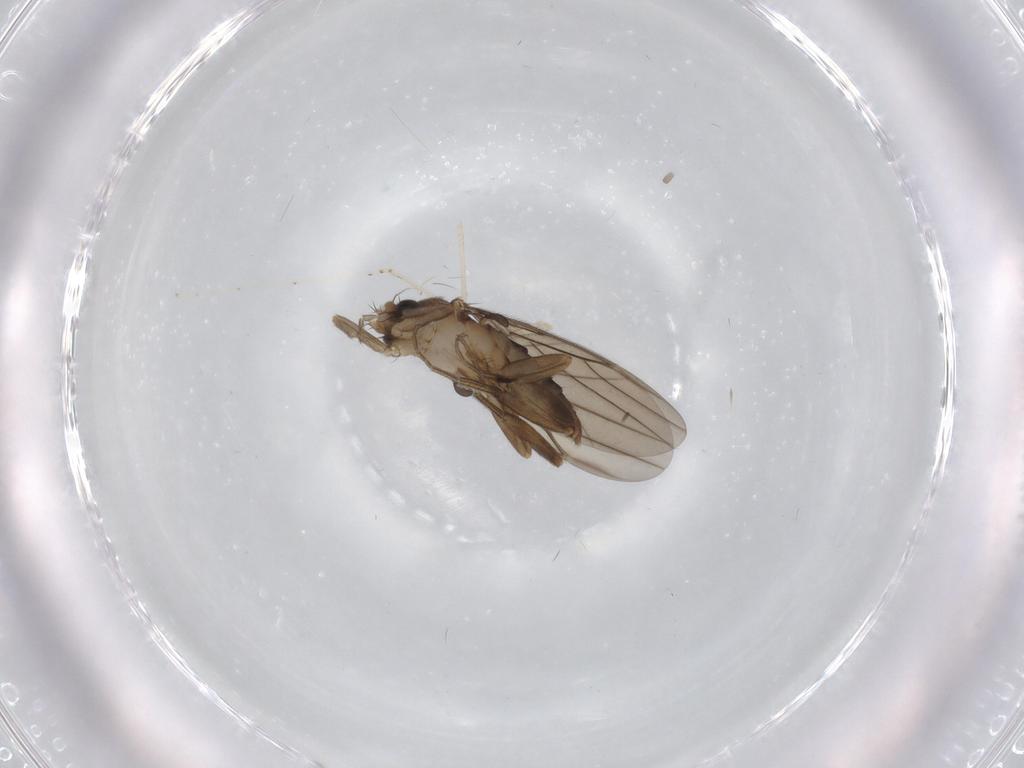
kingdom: Animalia
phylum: Arthropoda
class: Insecta
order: Diptera
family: Cecidomyiidae
